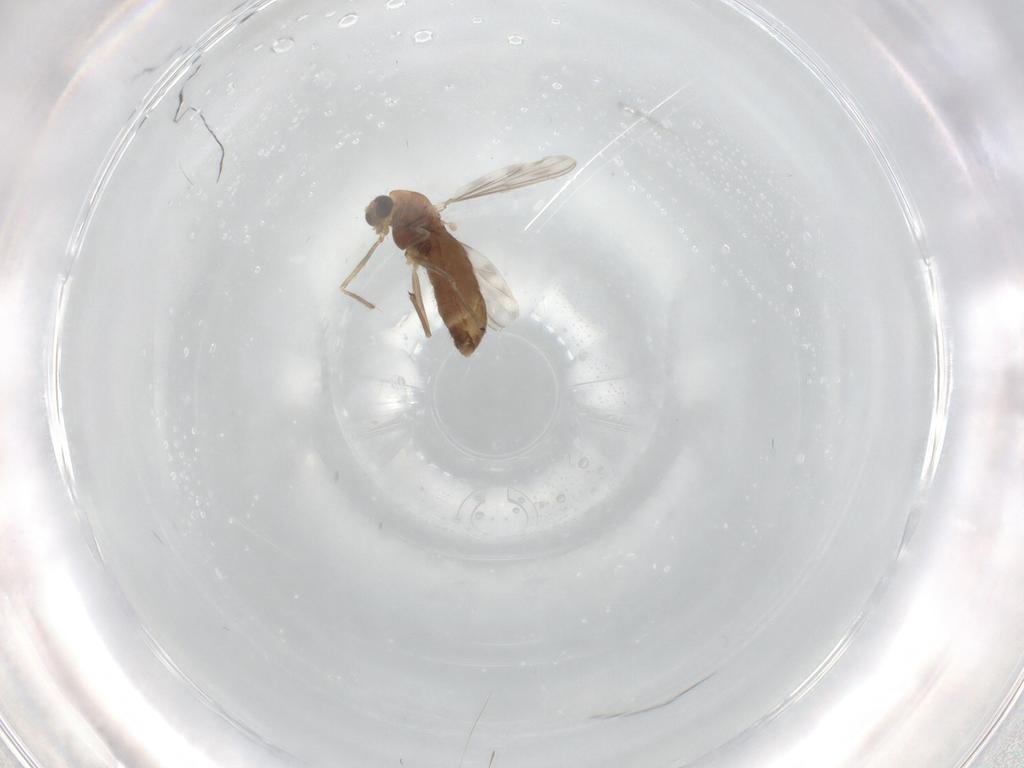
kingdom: Animalia
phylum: Arthropoda
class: Insecta
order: Diptera
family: Chironomidae
